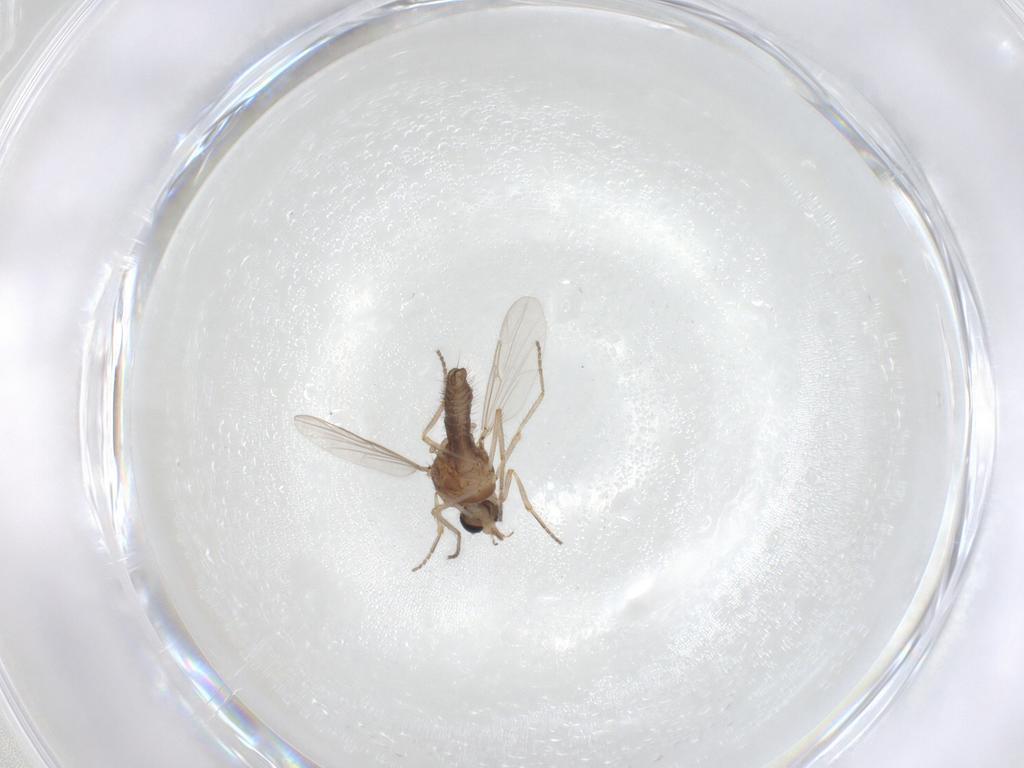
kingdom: Animalia
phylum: Arthropoda
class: Insecta
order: Diptera
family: Ceratopogonidae
